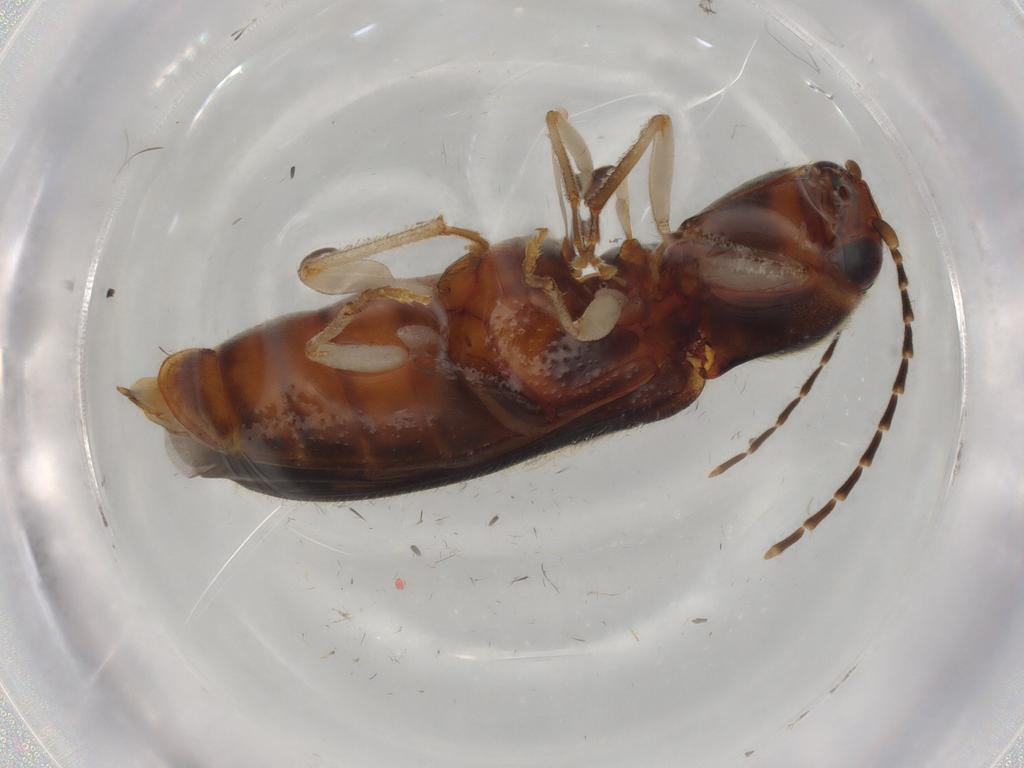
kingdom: Animalia
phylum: Arthropoda
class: Insecta
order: Coleoptera
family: Elateridae
